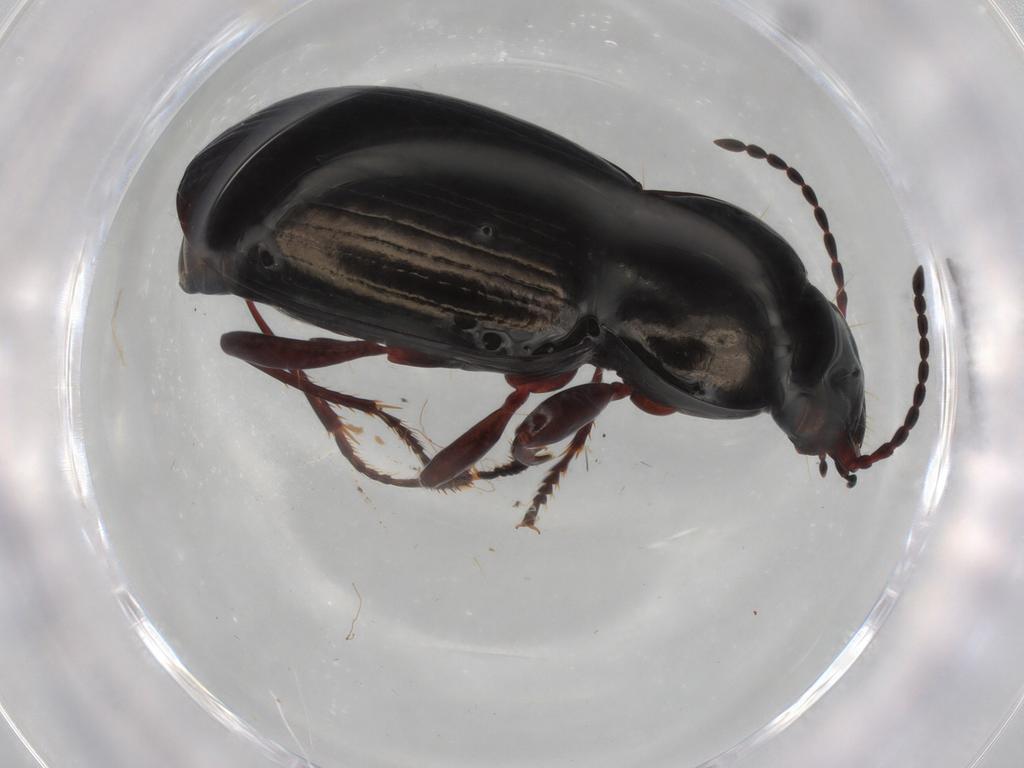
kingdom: Animalia
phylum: Arthropoda
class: Insecta
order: Coleoptera
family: Carabidae
